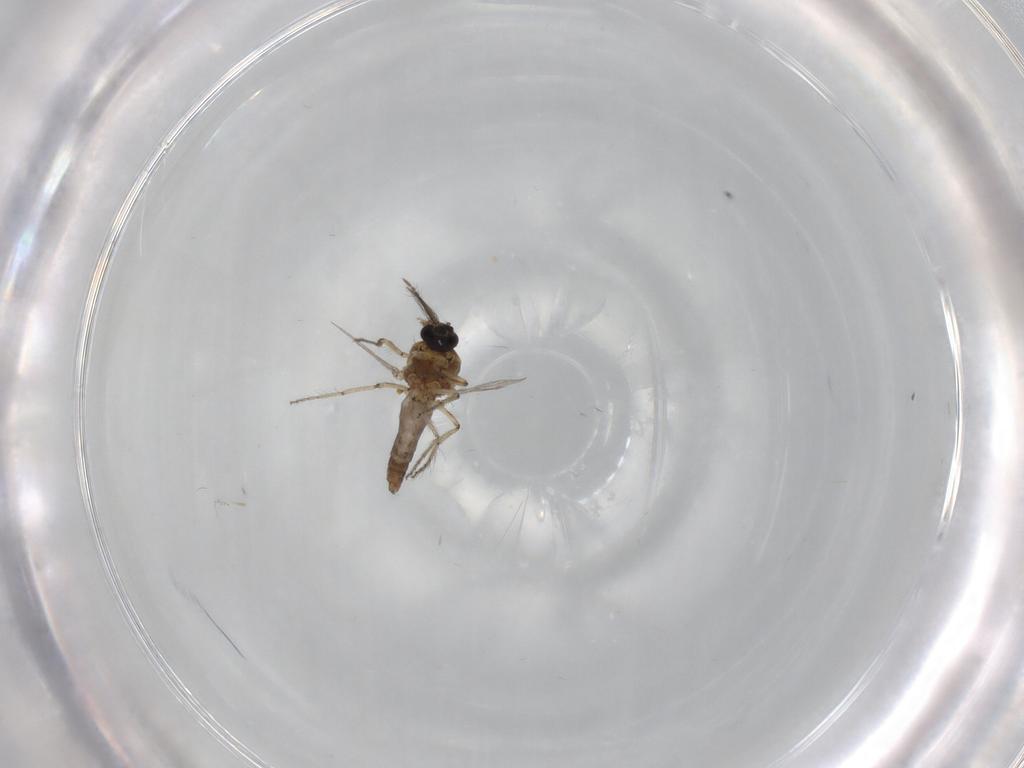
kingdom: Animalia
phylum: Arthropoda
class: Insecta
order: Diptera
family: Ceratopogonidae
